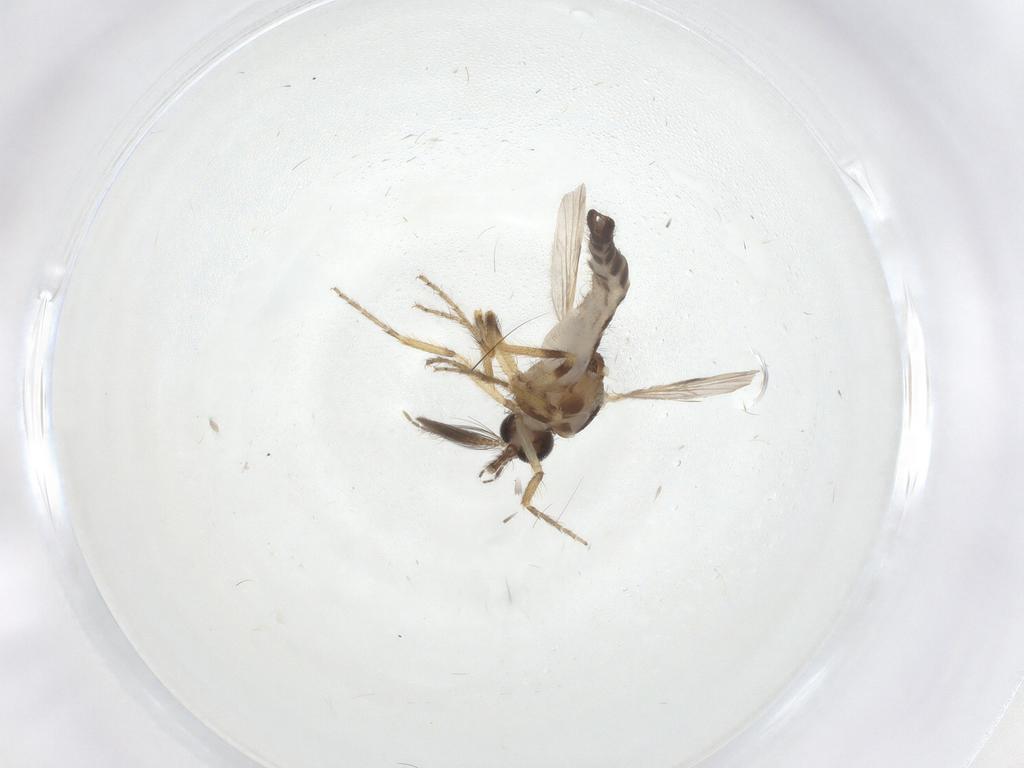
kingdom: Animalia
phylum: Arthropoda
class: Insecta
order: Diptera
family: Ceratopogonidae
